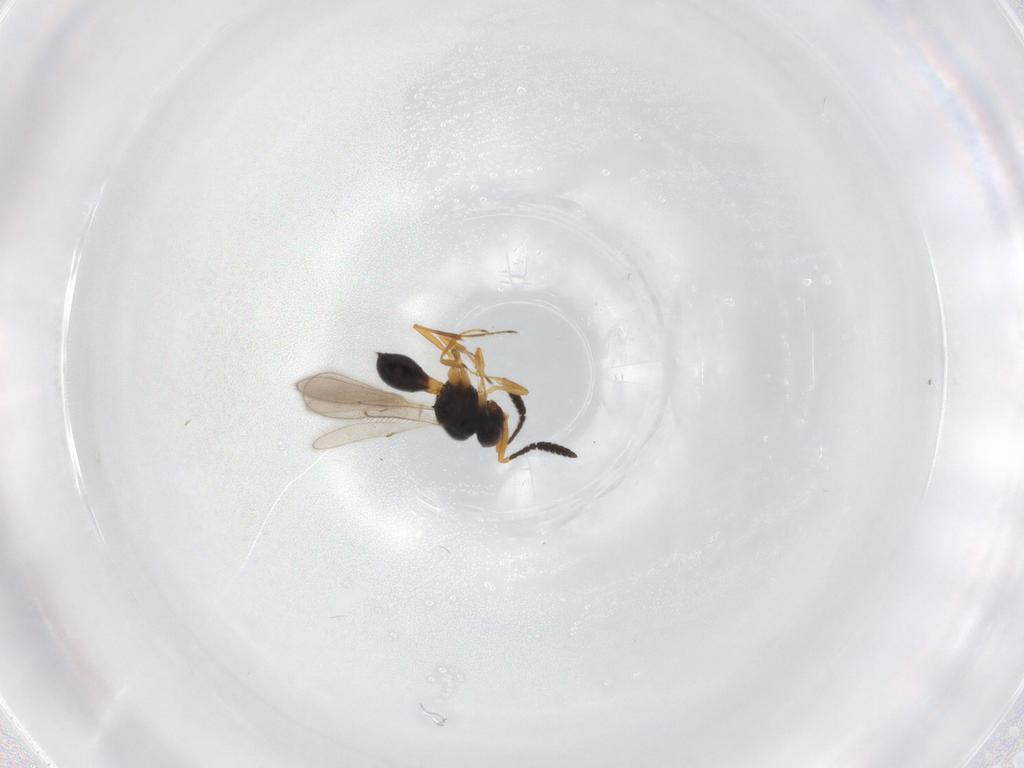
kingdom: Animalia
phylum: Arthropoda
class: Insecta
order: Hymenoptera
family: Scelionidae
